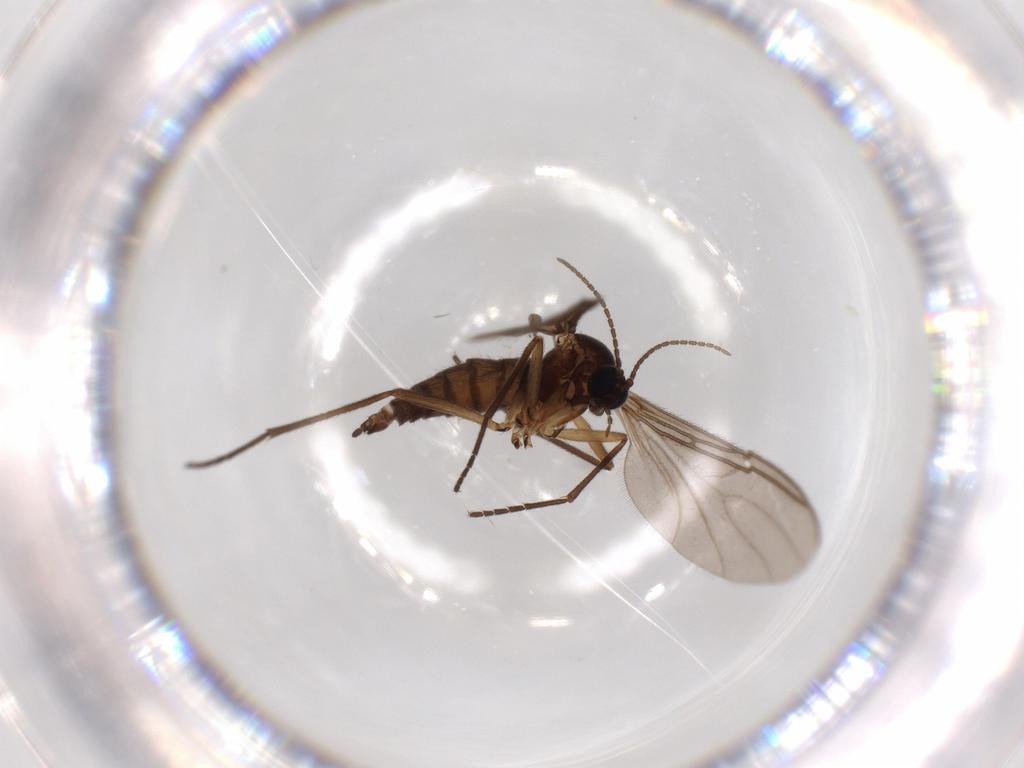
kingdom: Animalia
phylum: Arthropoda
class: Insecta
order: Diptera
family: Sciaridae
